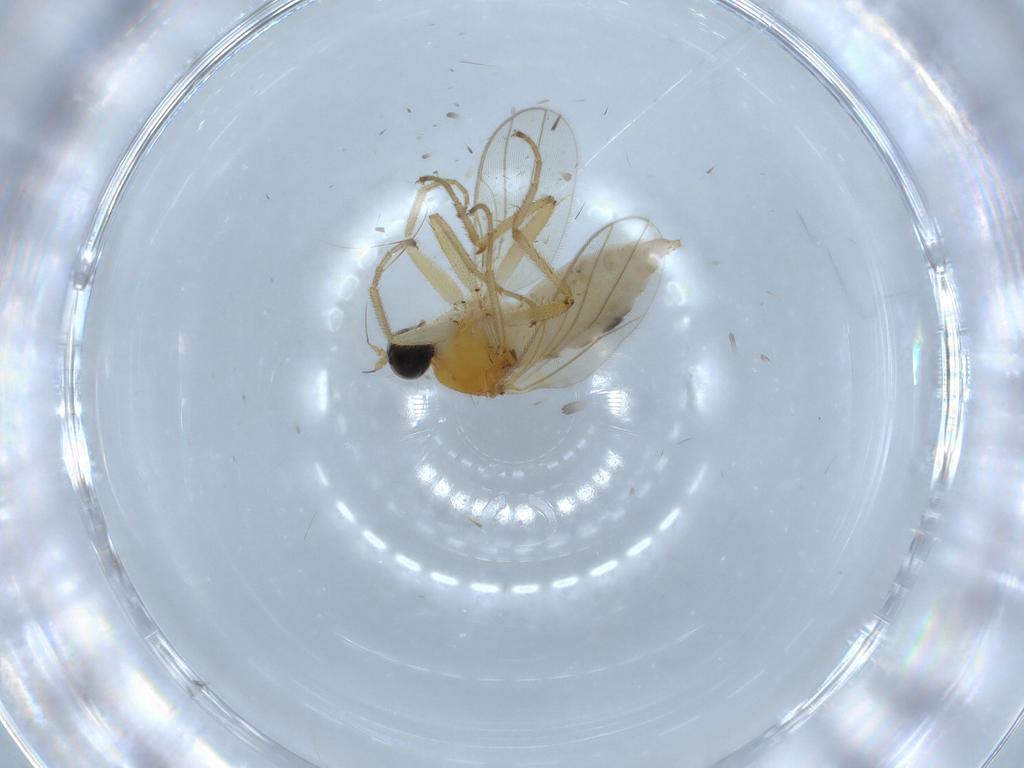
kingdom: Animalia
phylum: Arthropoda
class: Insecta
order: Diptera
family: Hybotidae
